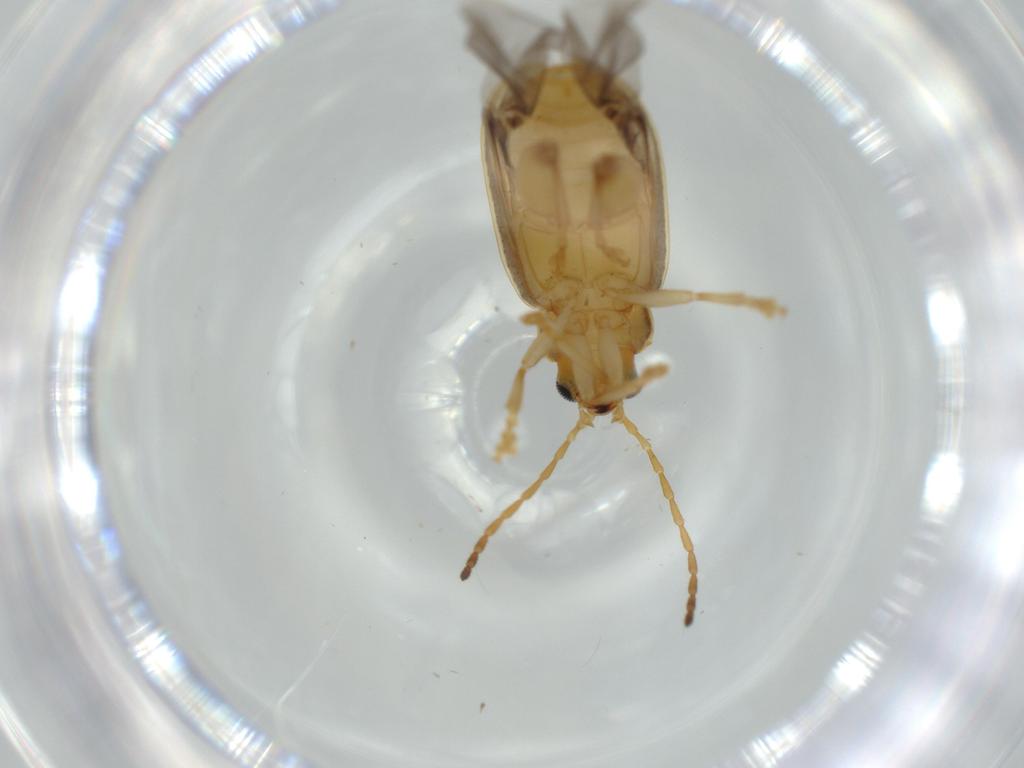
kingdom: Animalia
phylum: Arthropoda
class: Insecta
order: Coleoptera
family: Chrysomelidae
